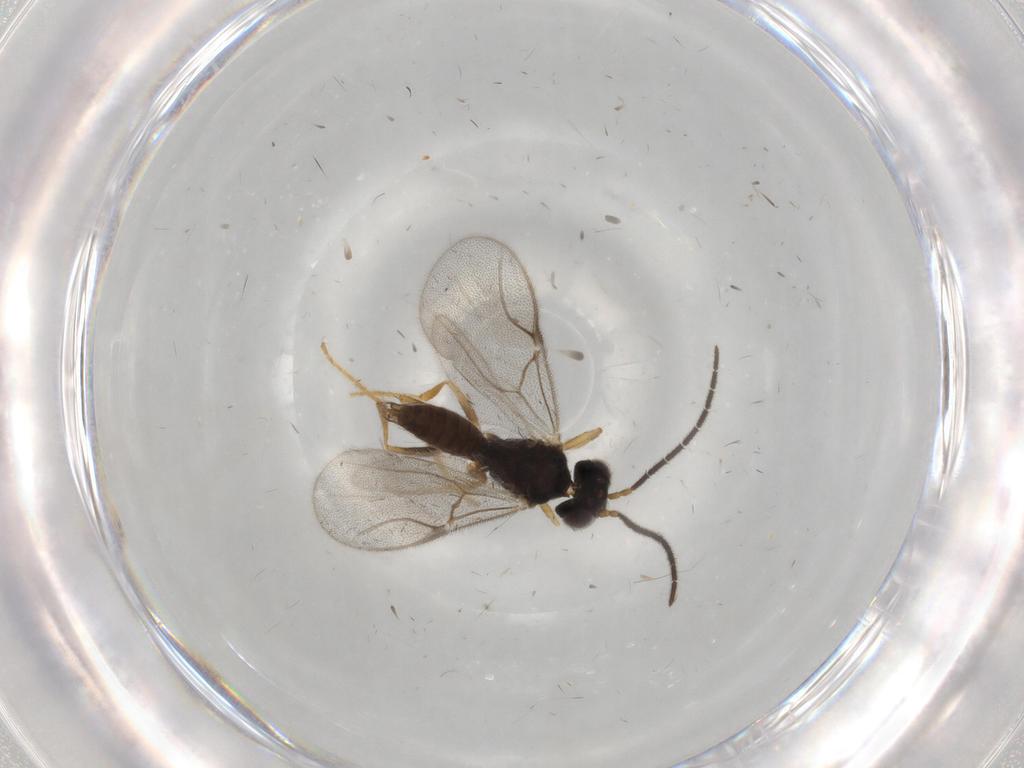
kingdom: Animalia
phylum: Arthropoda
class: Insecta
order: Hymenoptera
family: Dryinidae
